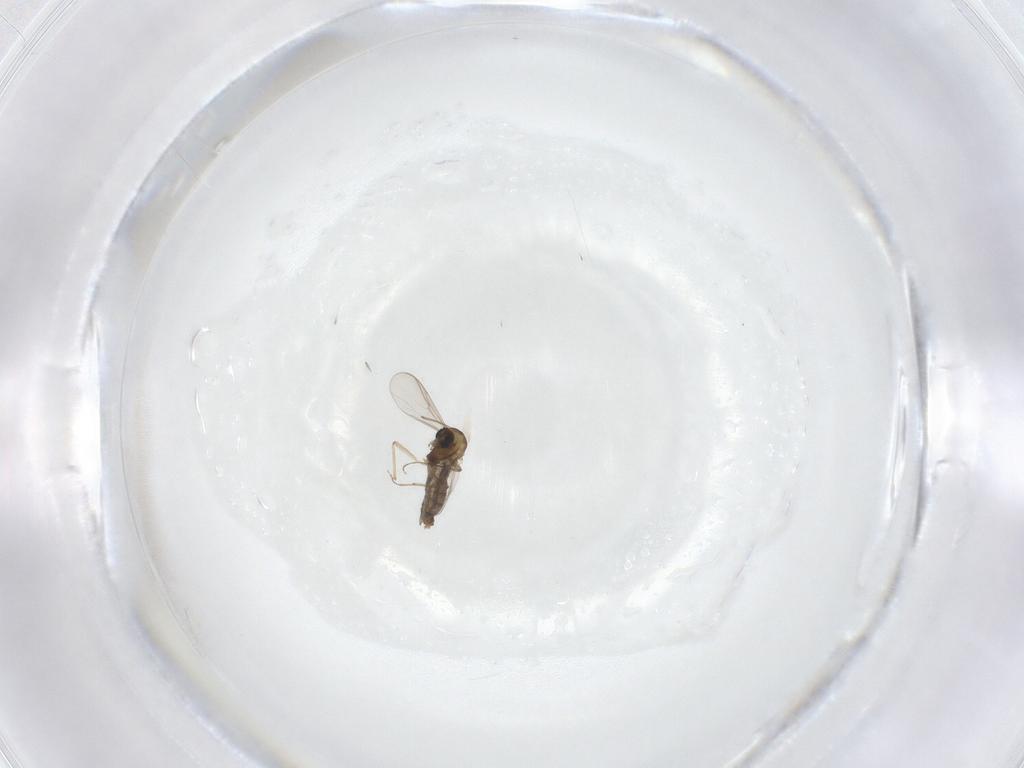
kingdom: Animalia
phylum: Arthropoda
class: Insecta
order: Diptera
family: Chironomidae
